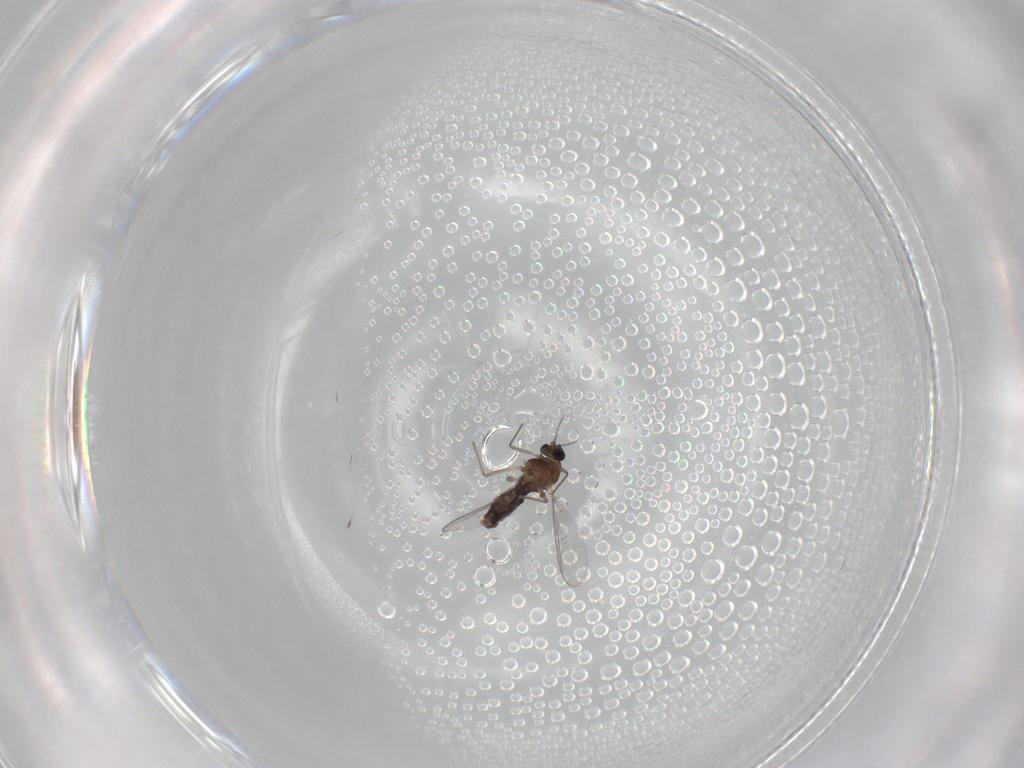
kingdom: Animalia
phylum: Arthropoda
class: Insecta
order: Diptera
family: Chironomidae
